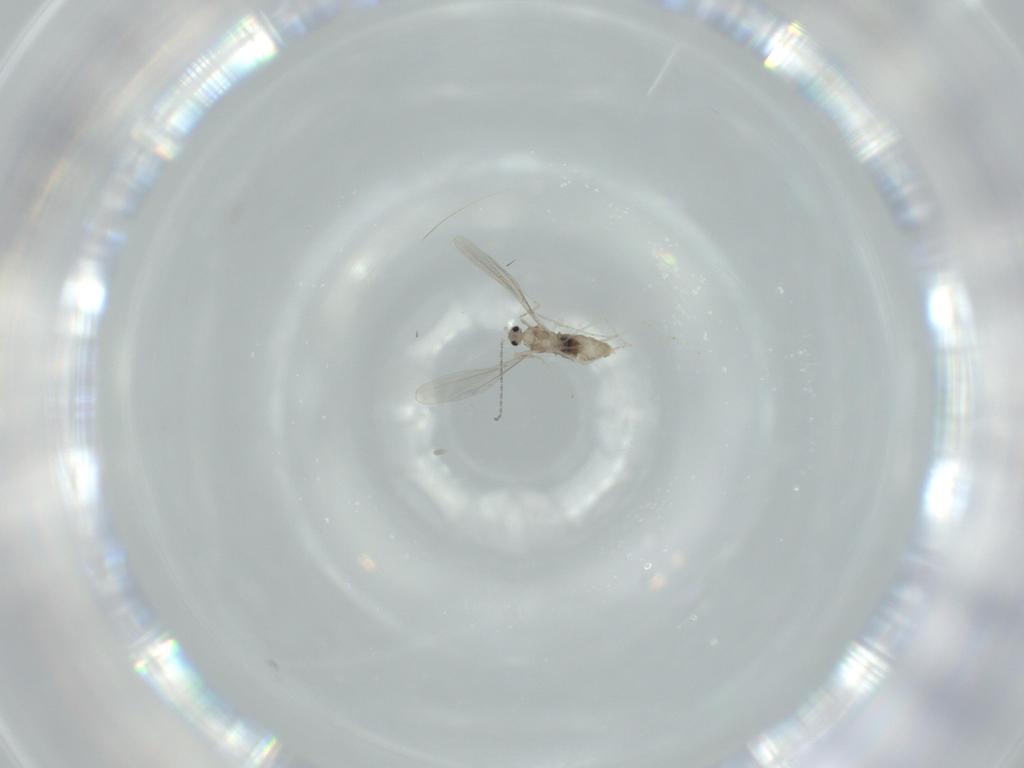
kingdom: Animalia
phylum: Arthropoda
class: Insecta
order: Diptera
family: Cecidomyiidae
